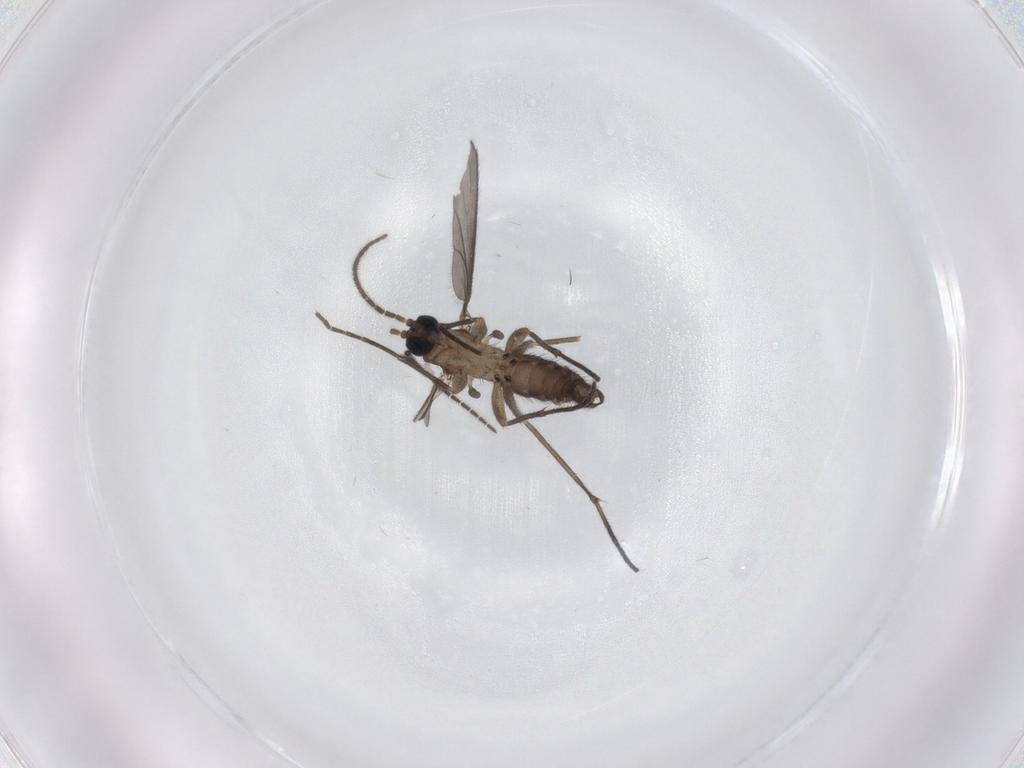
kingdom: Animalia
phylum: Arthropoda
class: Insecta
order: Diptera
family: Sciaridae
